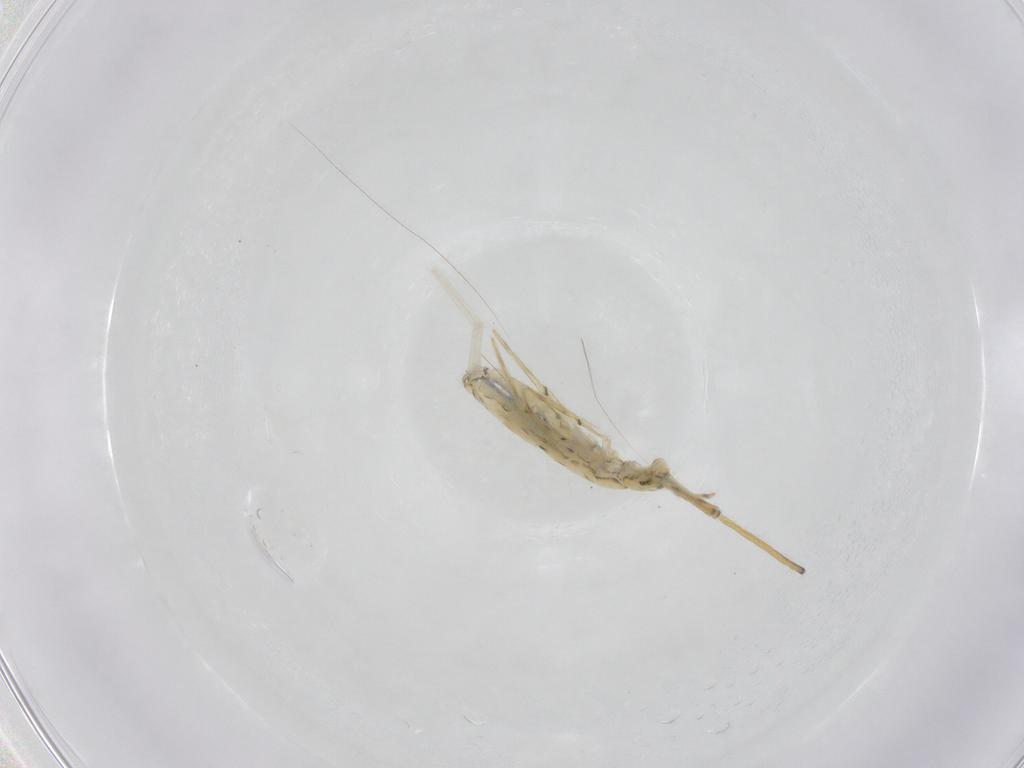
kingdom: Animalia
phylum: Arthropoda
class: Collembola
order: Entomobryomorpha
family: Paronellidae
